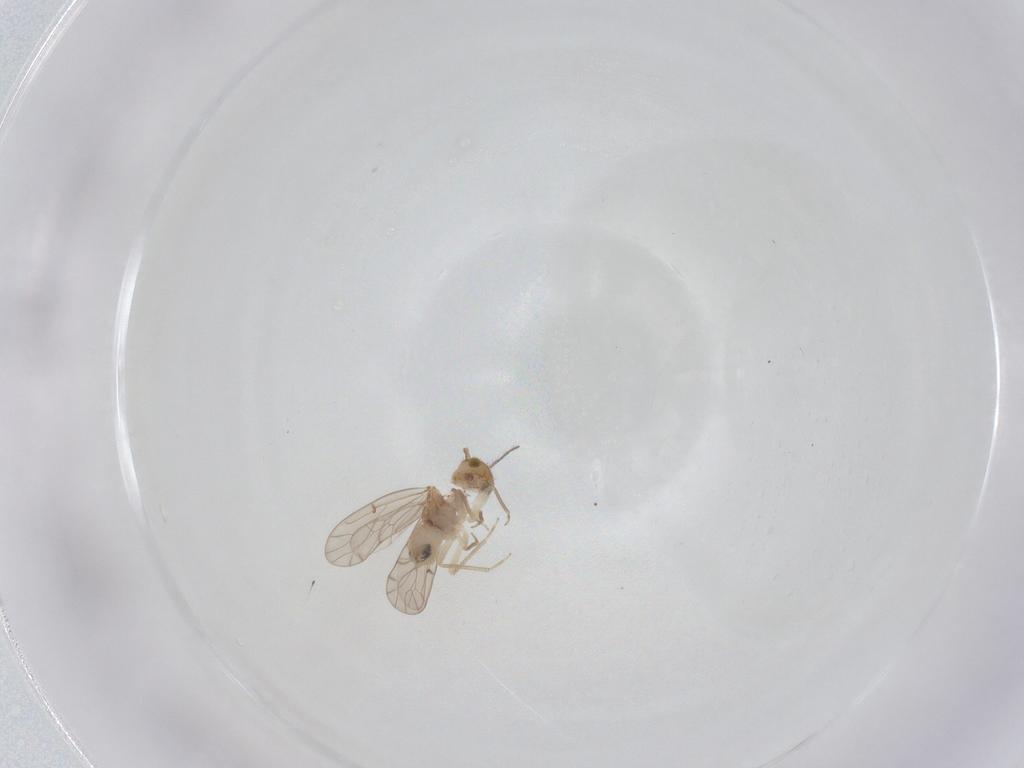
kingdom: Animalia
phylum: Arthropoda
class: Insecta
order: Psocodea
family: Ectopsocidae
